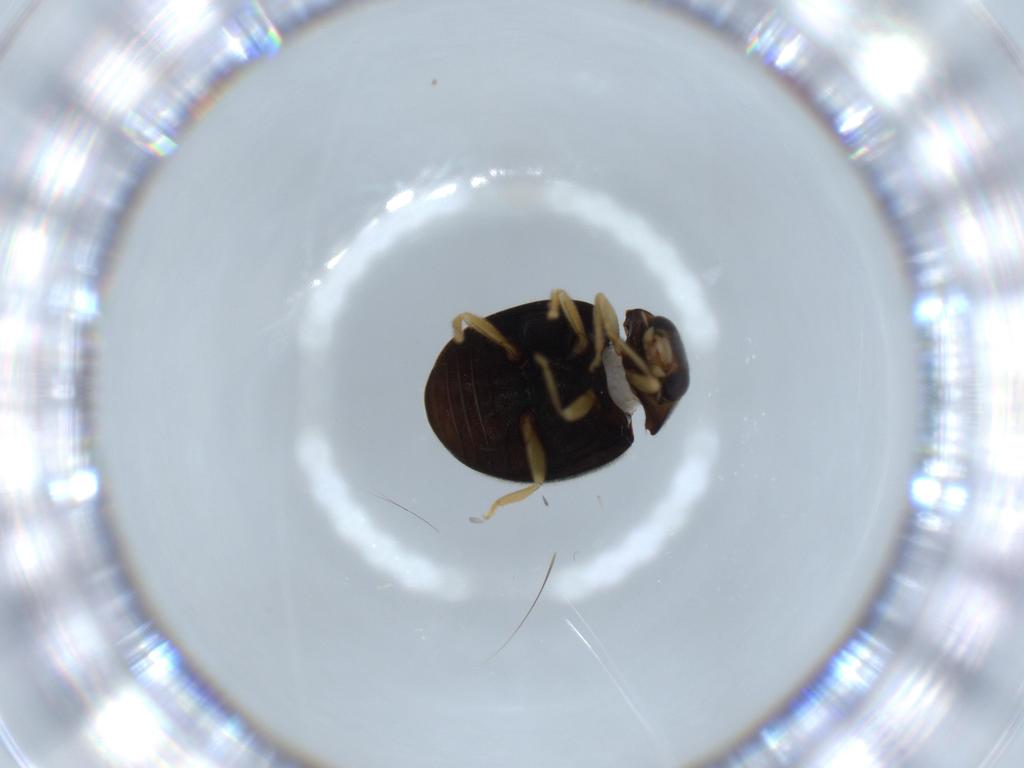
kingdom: Animalia
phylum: Arthropoda
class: Insecta
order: Coleoptera
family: Coccinellidae
